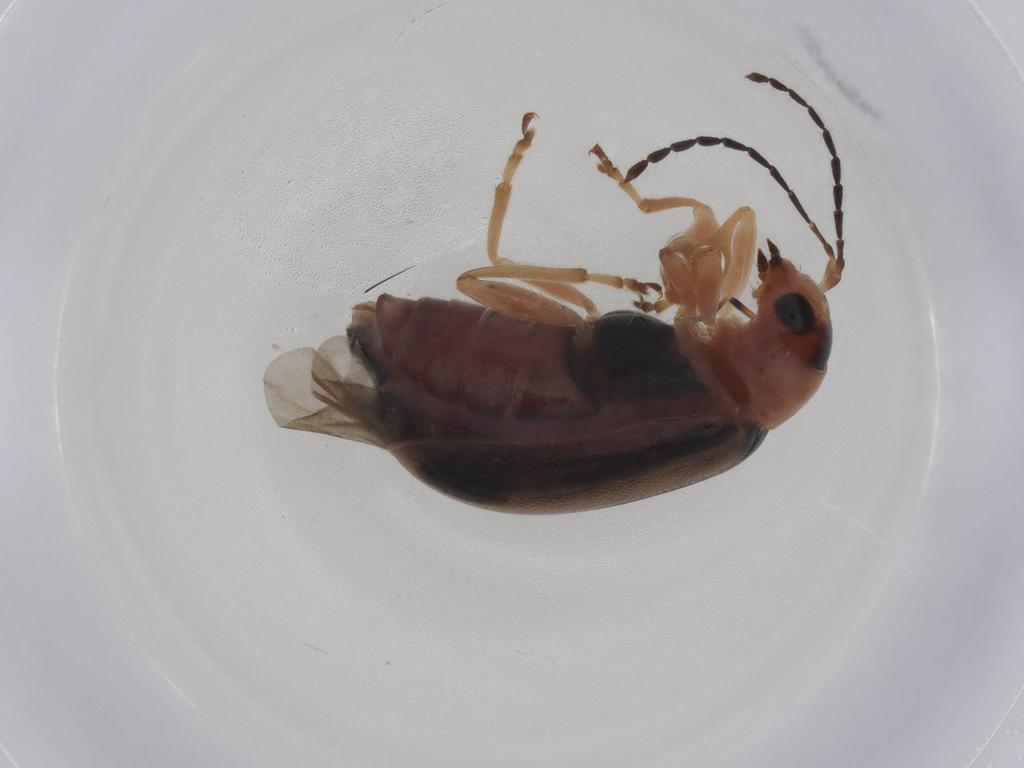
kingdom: Animalia
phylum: Arthropoda
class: Insecta
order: Coleoptera
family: Chrysomelidae
